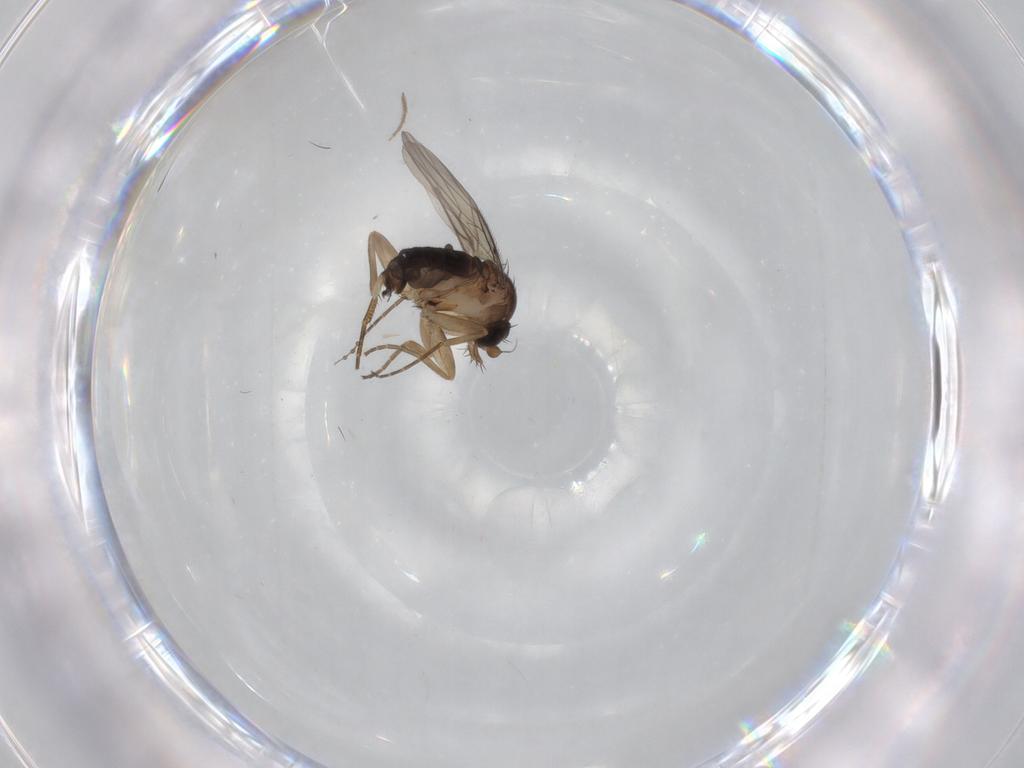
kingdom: Animalia
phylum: Arthropoda
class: Insecta
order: Diptera
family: Phoridae
